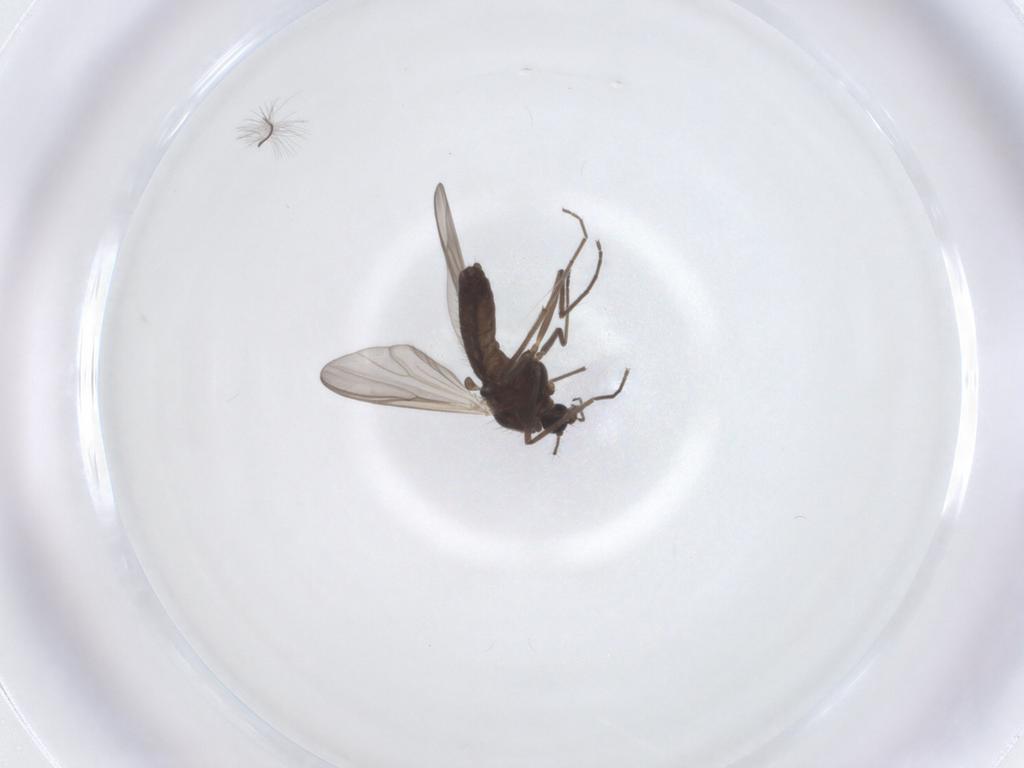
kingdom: Animalia
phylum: Arthropoda
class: Insecta
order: Diptera
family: Chironomidae
